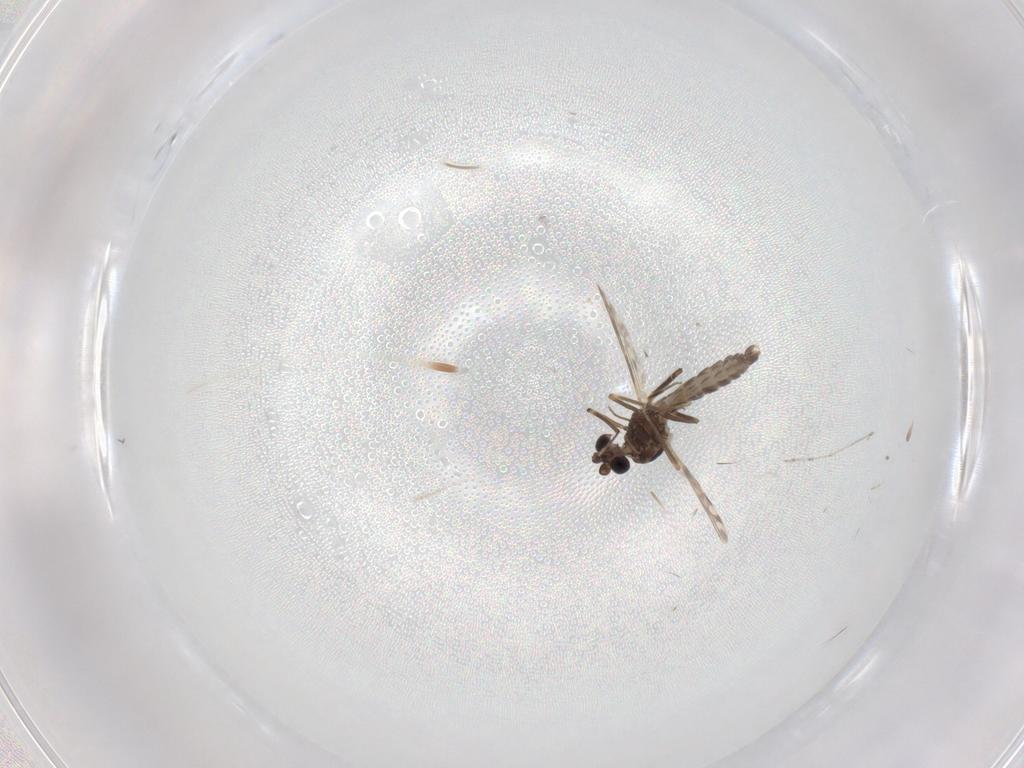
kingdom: Animalia
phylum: Arthropoda
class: Insecta
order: Diptera
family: Ceratopogonidae
